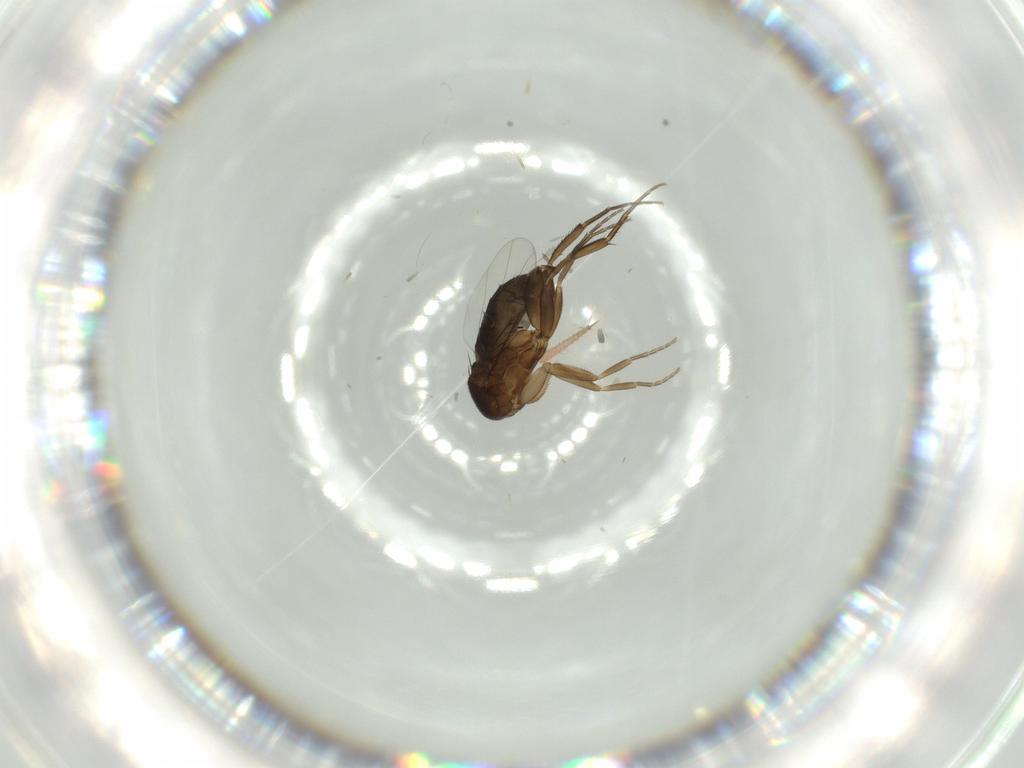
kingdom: Animalia
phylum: Arthropoda
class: Insecta
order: Diptera
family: Phoridae
